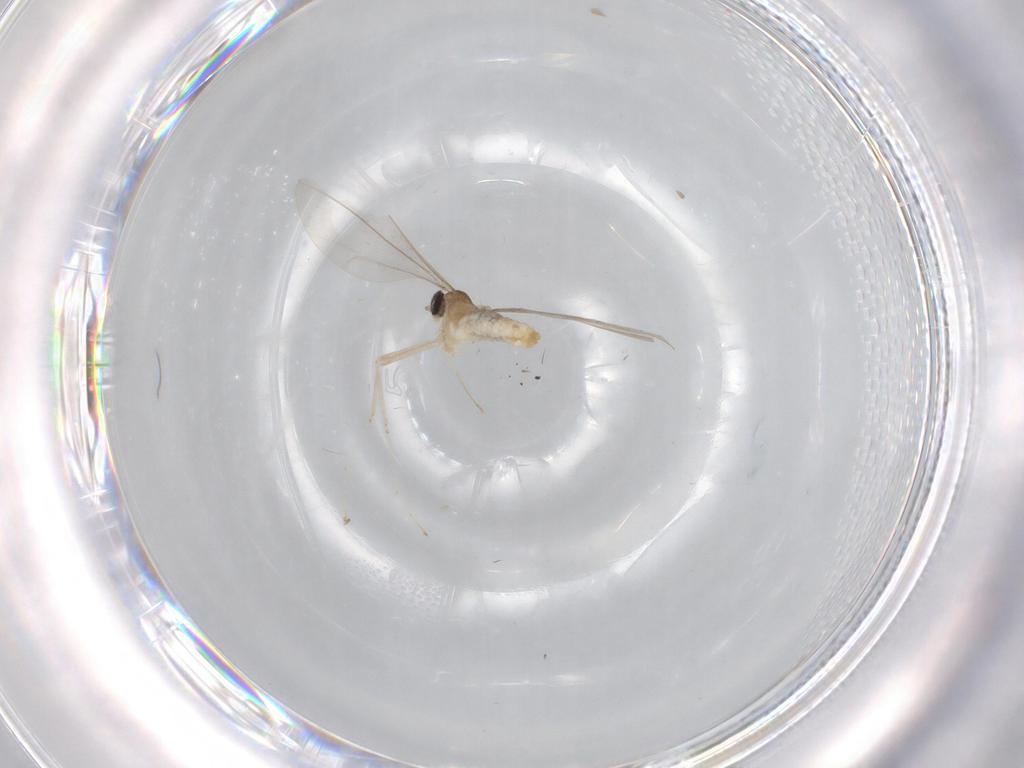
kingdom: Animalia
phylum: Arthropoda
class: Insecta
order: Diptera
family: Cecidomyiidae
